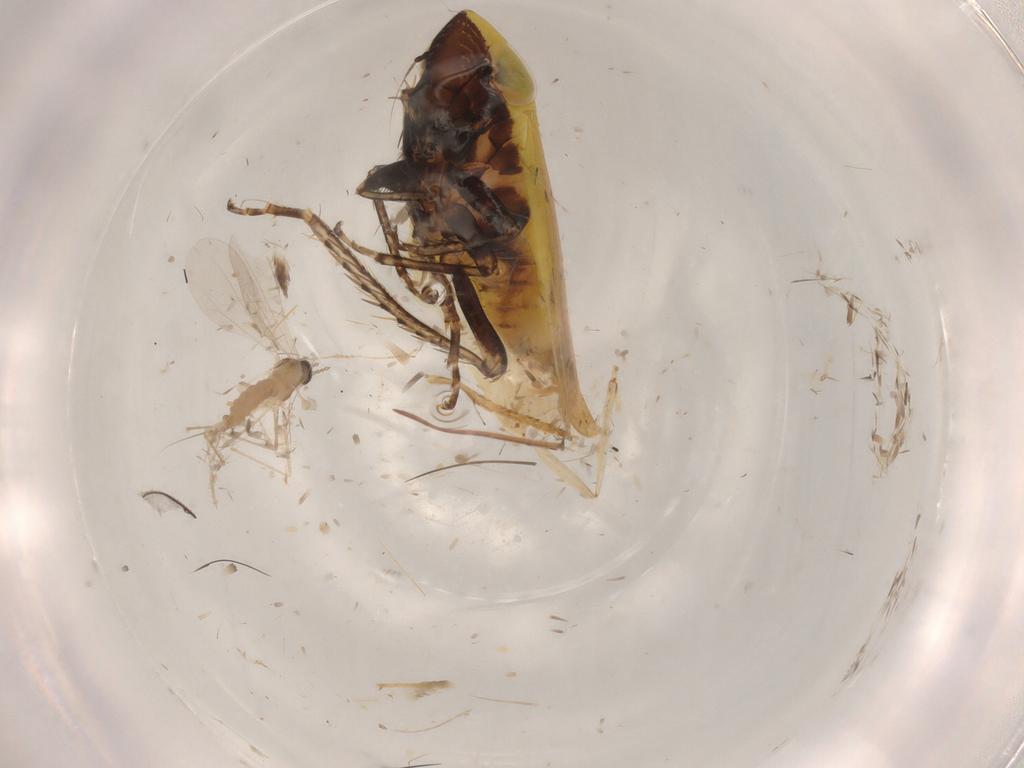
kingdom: Animalia
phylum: Arthropoda
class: Insecta
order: Hemiptera
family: Cicadellidae
